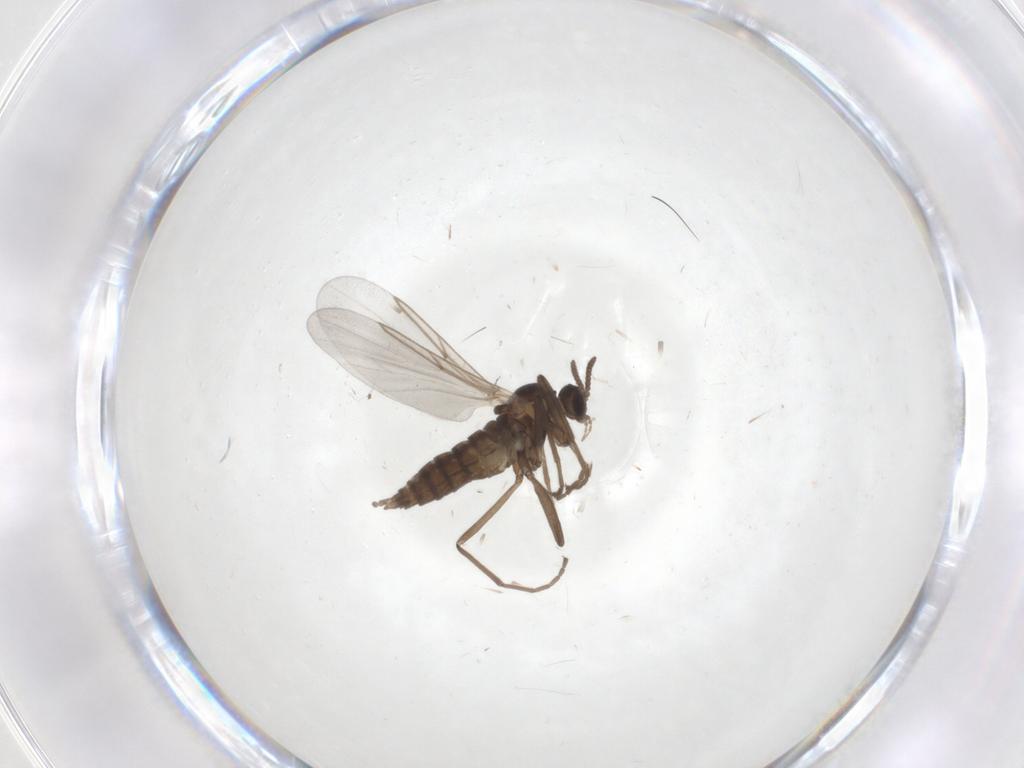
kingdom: Animalia
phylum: Arthropoda
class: Insecta
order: Diptera
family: Cecidomyiidae
